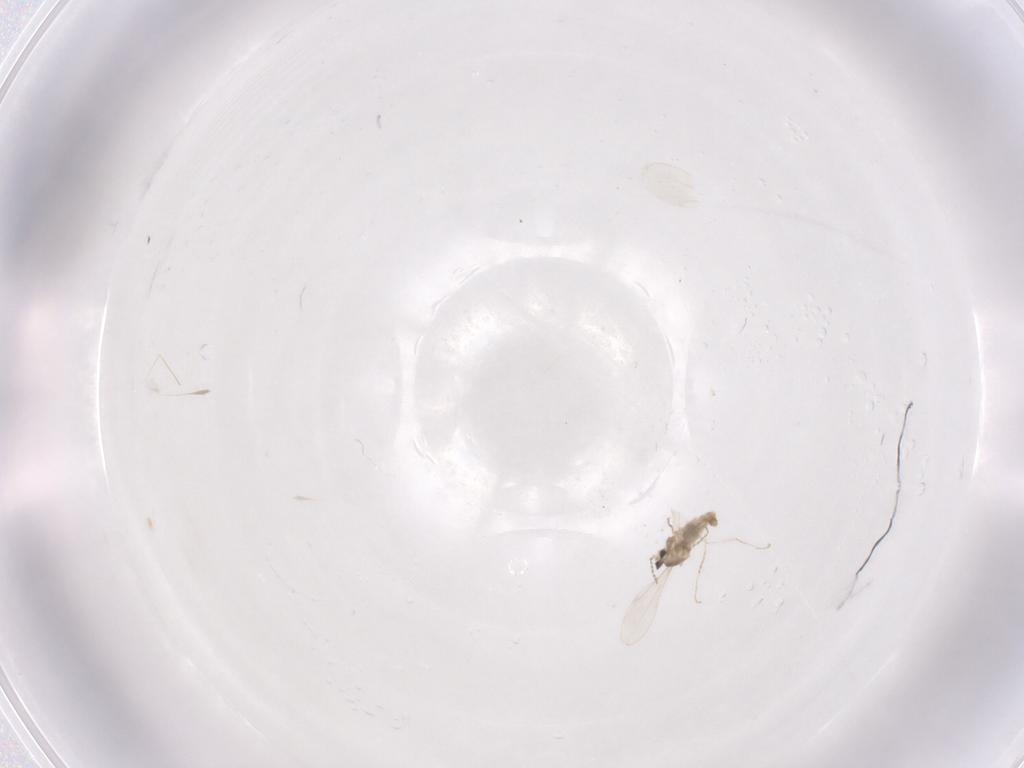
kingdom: Animalia
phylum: Arthropoda
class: Insecta
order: Diptera
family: Cecidomyiidae
